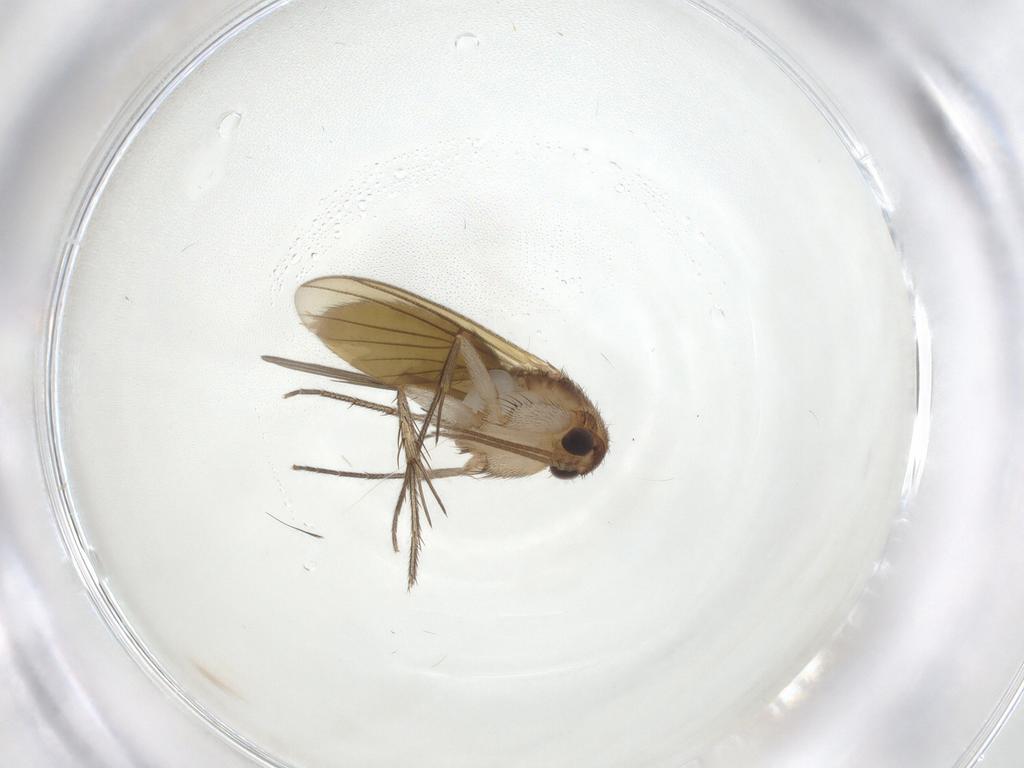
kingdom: Animalia
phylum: Arthropoda
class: Insecta
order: Diptera
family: Mycetophilidae
